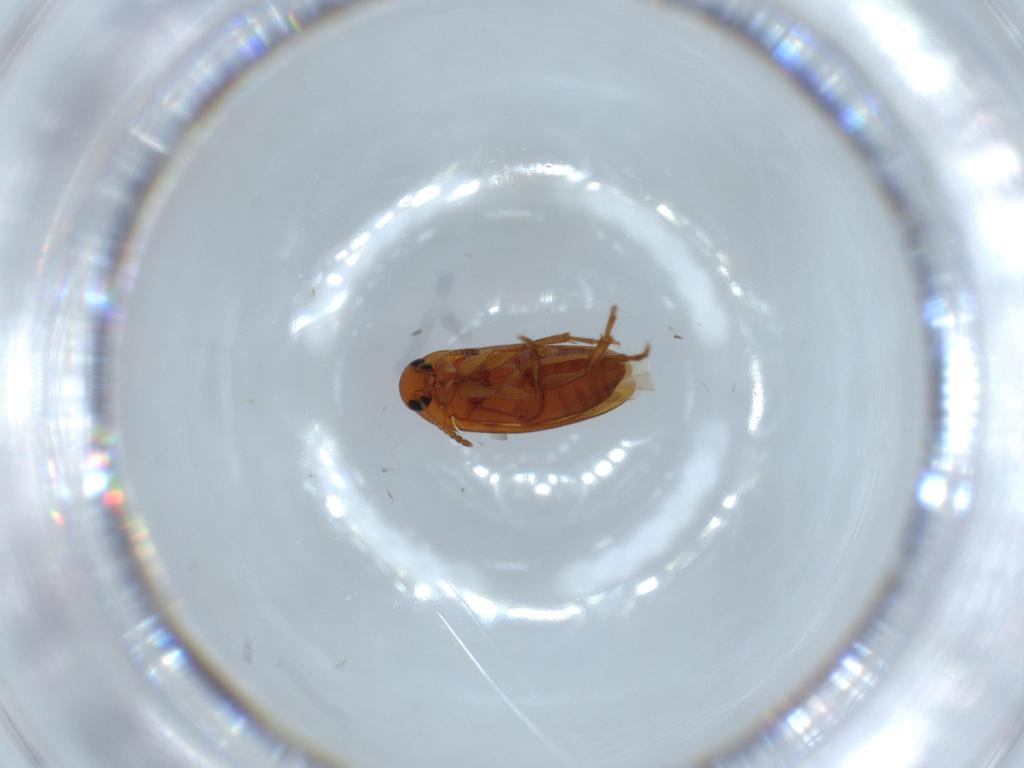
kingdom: Animalia
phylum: Arthropoda
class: Insecta
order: Coleoptera
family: Scraptiidae
